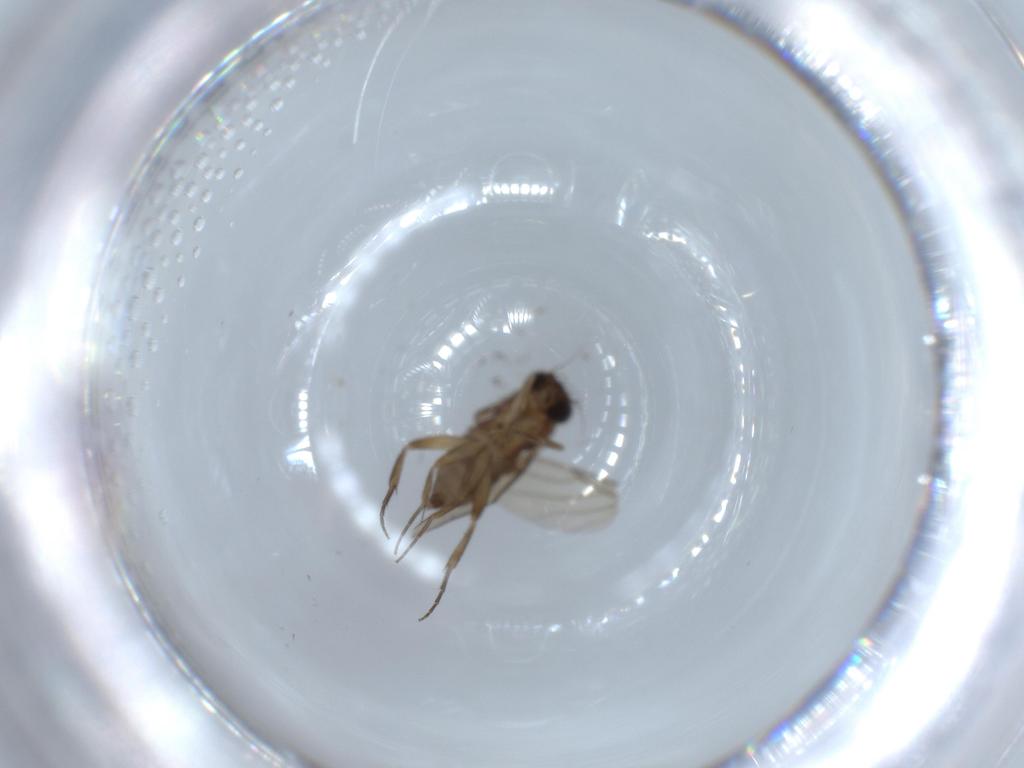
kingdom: Animalia
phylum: Arthropoda
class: Insecta
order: Diptera
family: Phoridae
